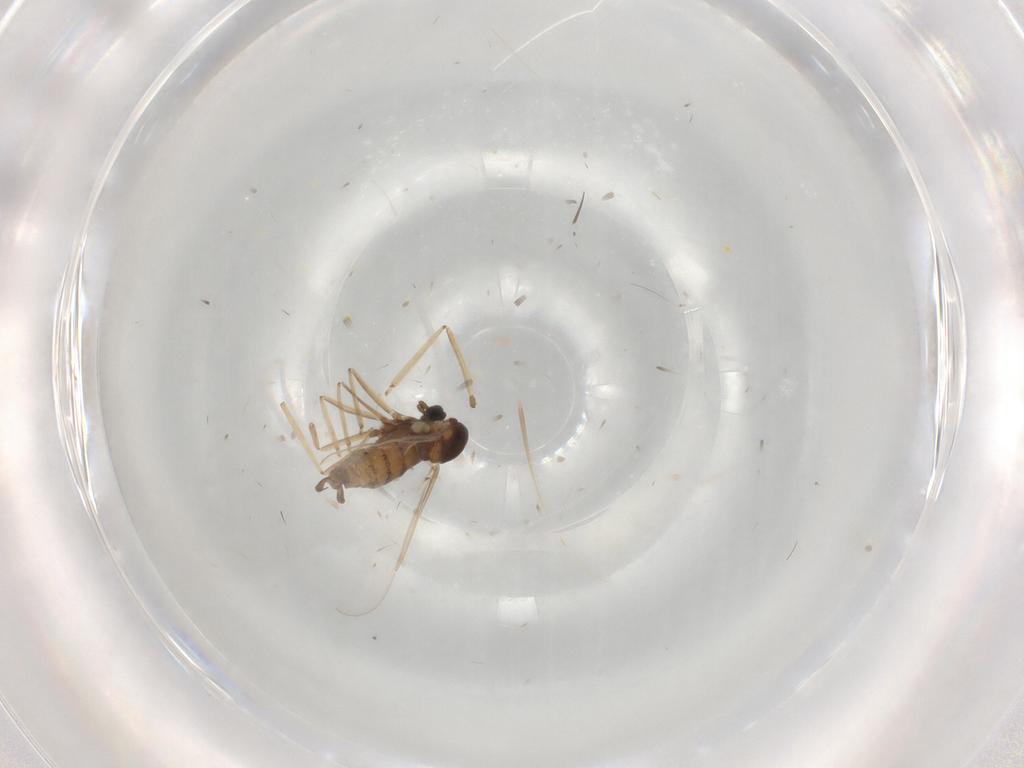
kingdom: Animalia
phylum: Arthropoda
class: Insecta
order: Diptera
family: Cecidomyiidae
